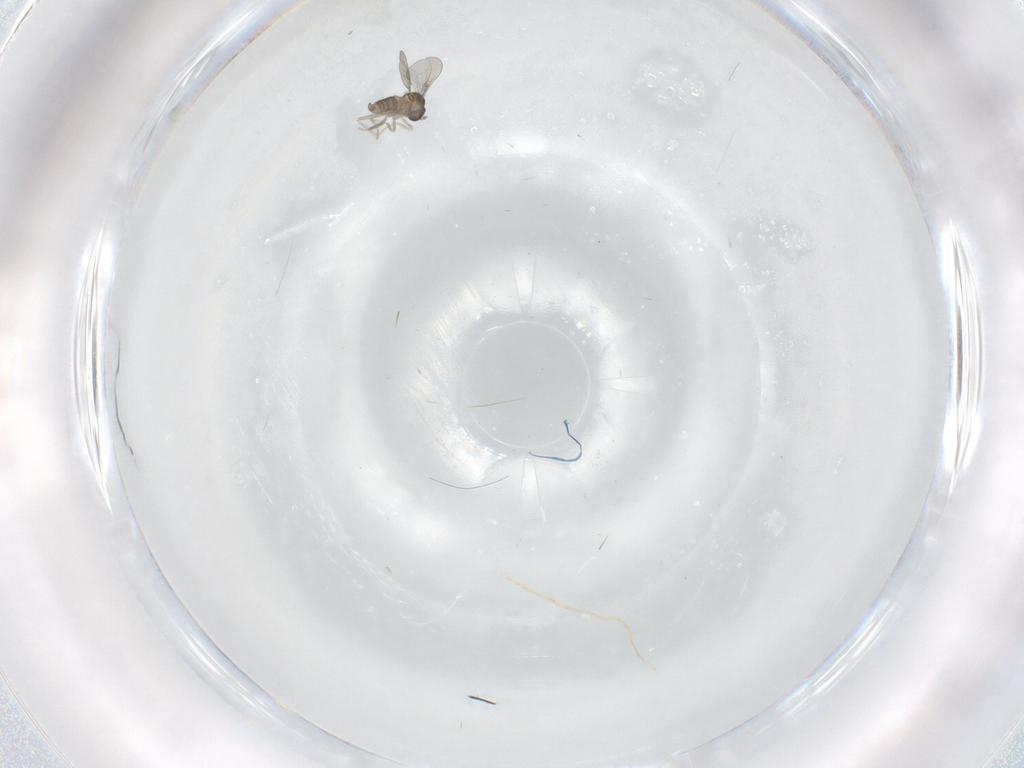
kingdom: Animalia
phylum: Arthropoda
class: Insecta
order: Diptera
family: Cecidomyiidae
